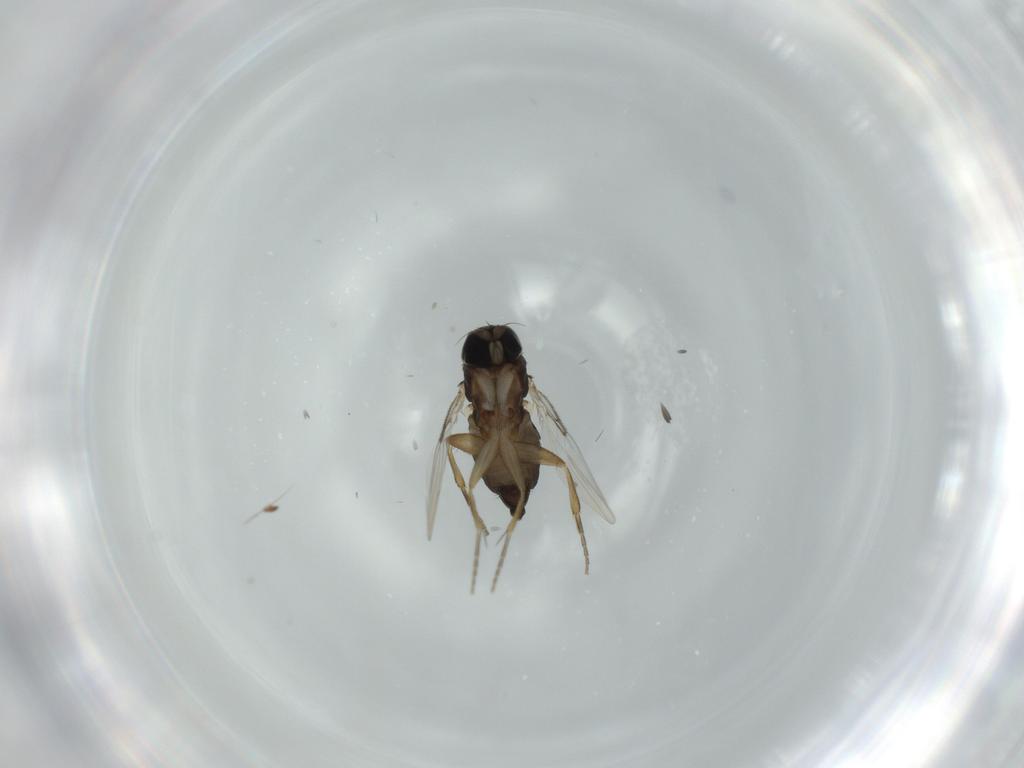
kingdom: Animalia
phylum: Arthropoda
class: Insecta
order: Diptera
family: Phoridae
